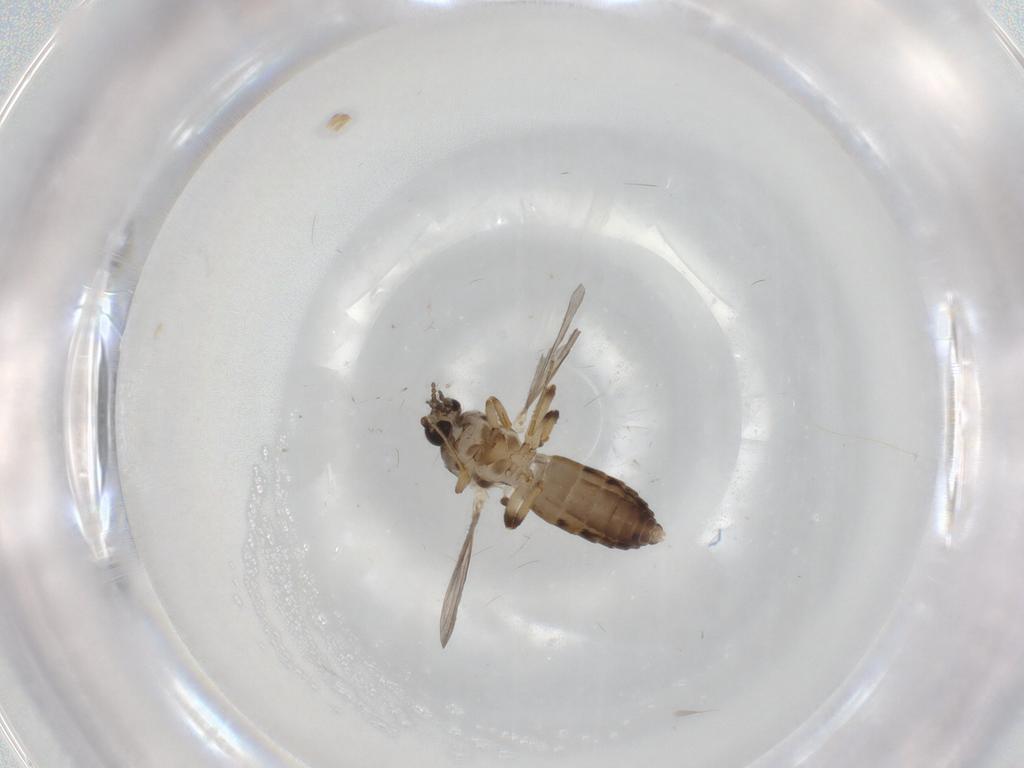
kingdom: Animalia
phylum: Arthropoda
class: Insecta
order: Diptera
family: Ceratopogonidae
